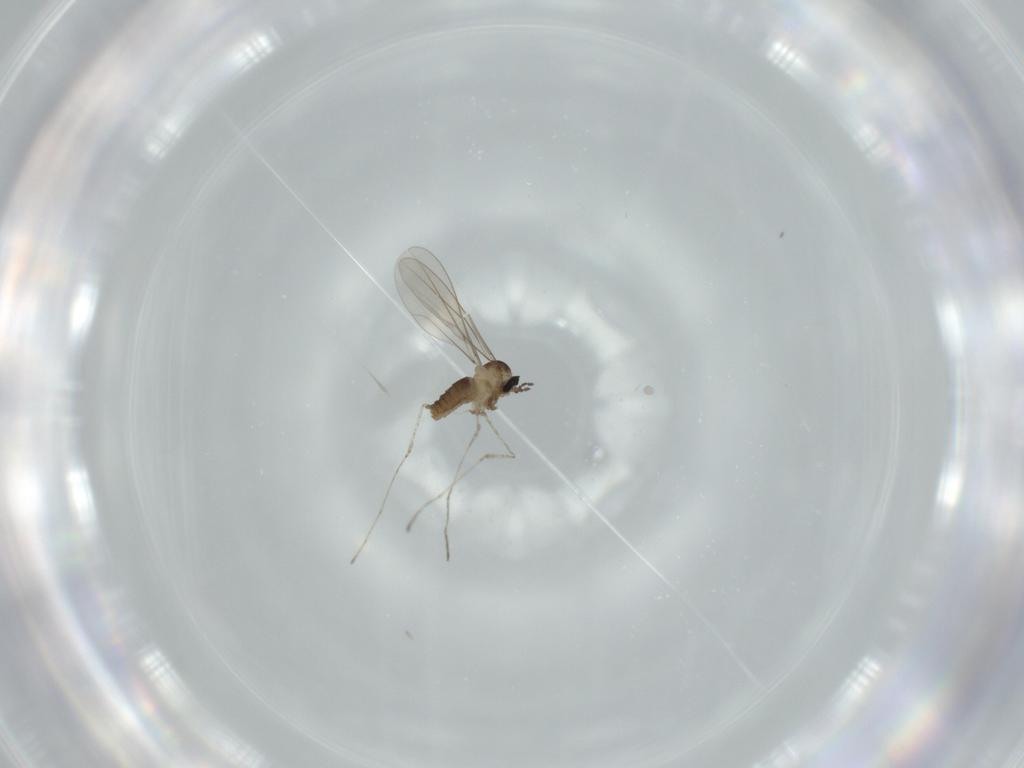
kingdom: Animalia
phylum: Arthropoda
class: Insecta
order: Diptera
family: Cecidomyiidae
